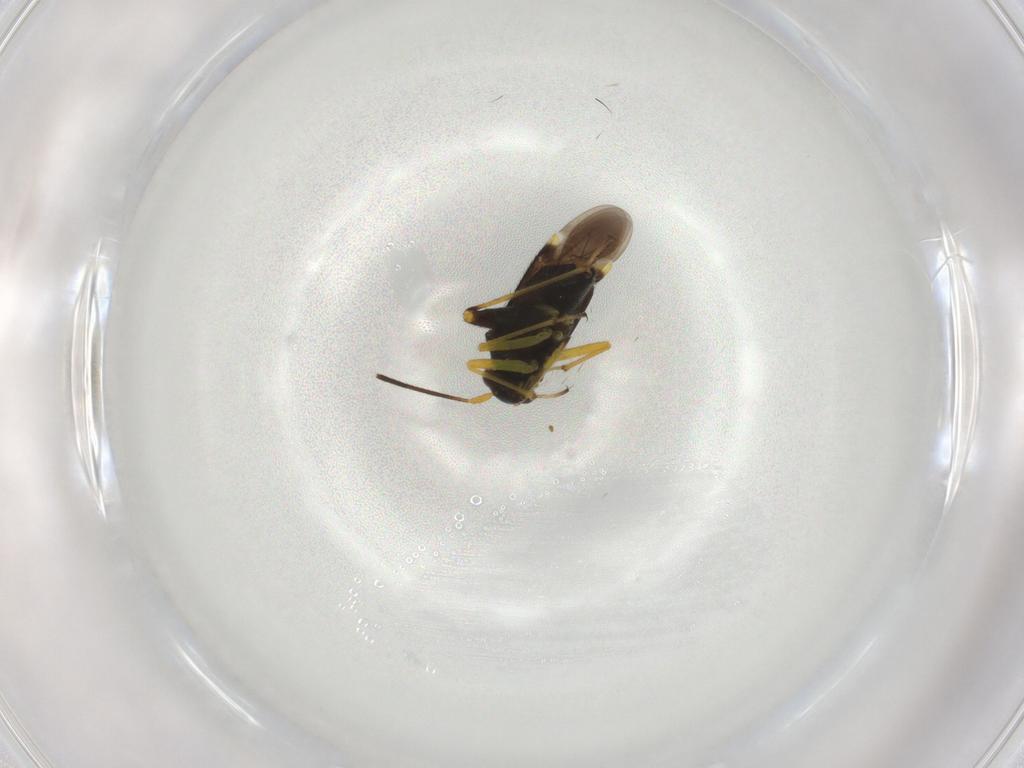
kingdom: Animalia
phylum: Arthropoda
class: Insecta
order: Hemiptera
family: Miridae
